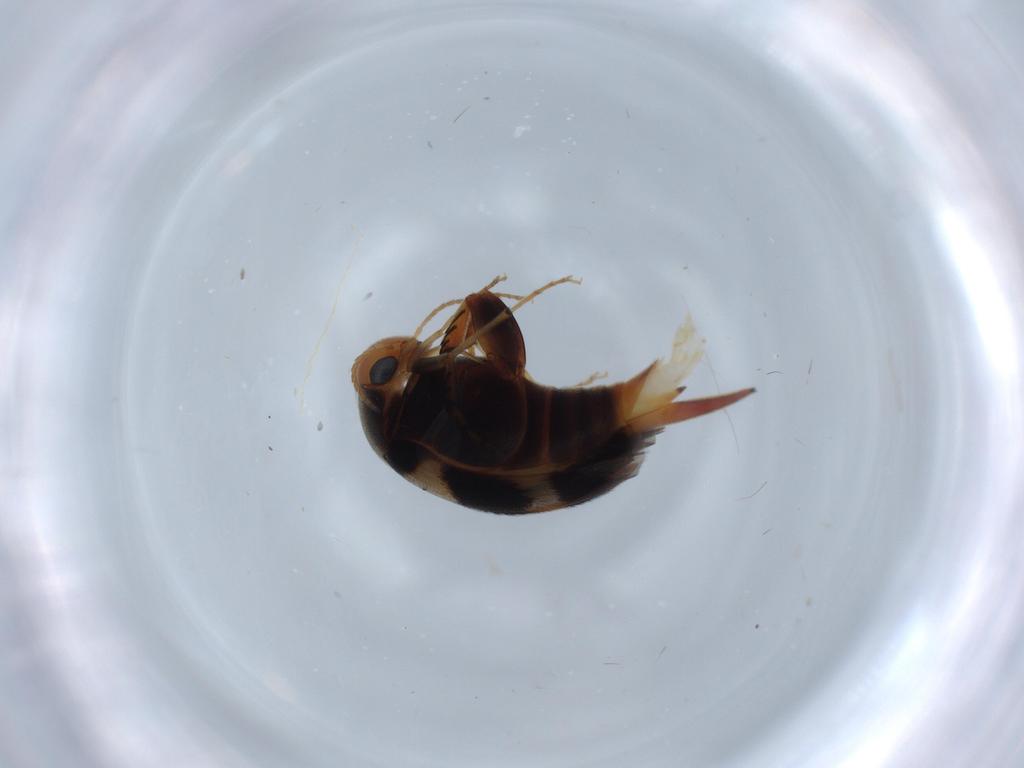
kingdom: Animalia
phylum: Arthropoda
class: Insecta
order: Coleoptera
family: Mordellidae
